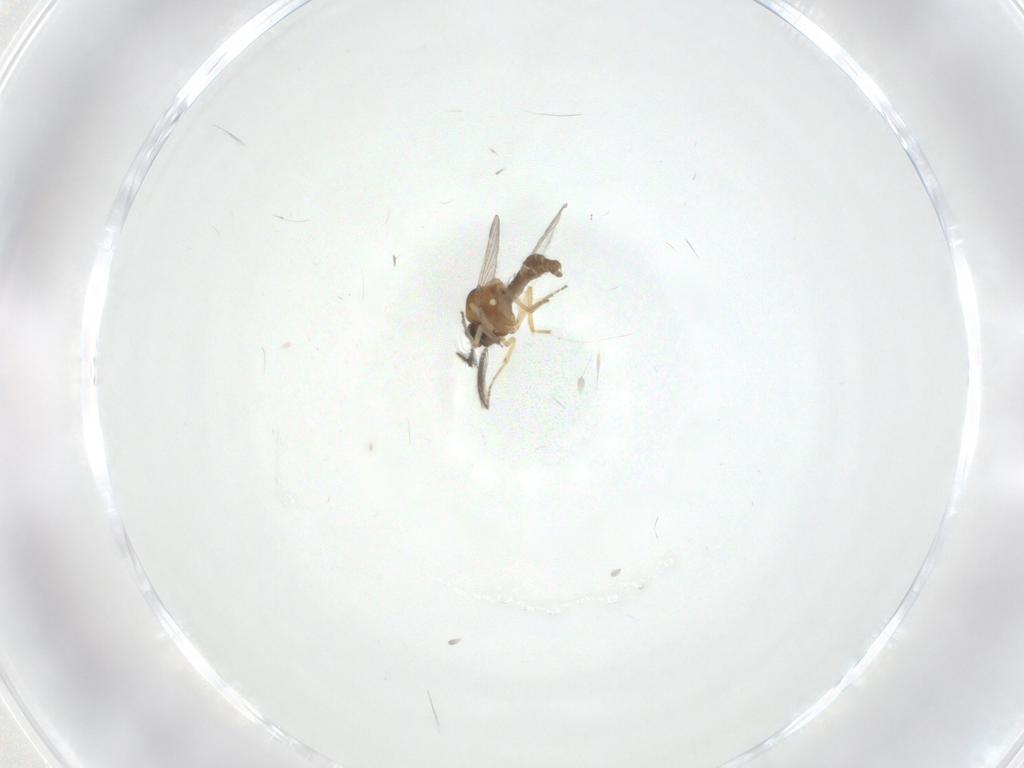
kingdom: Animalia
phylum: Arthropoda
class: Insecta
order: Diptera
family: Ceratopogonidae
